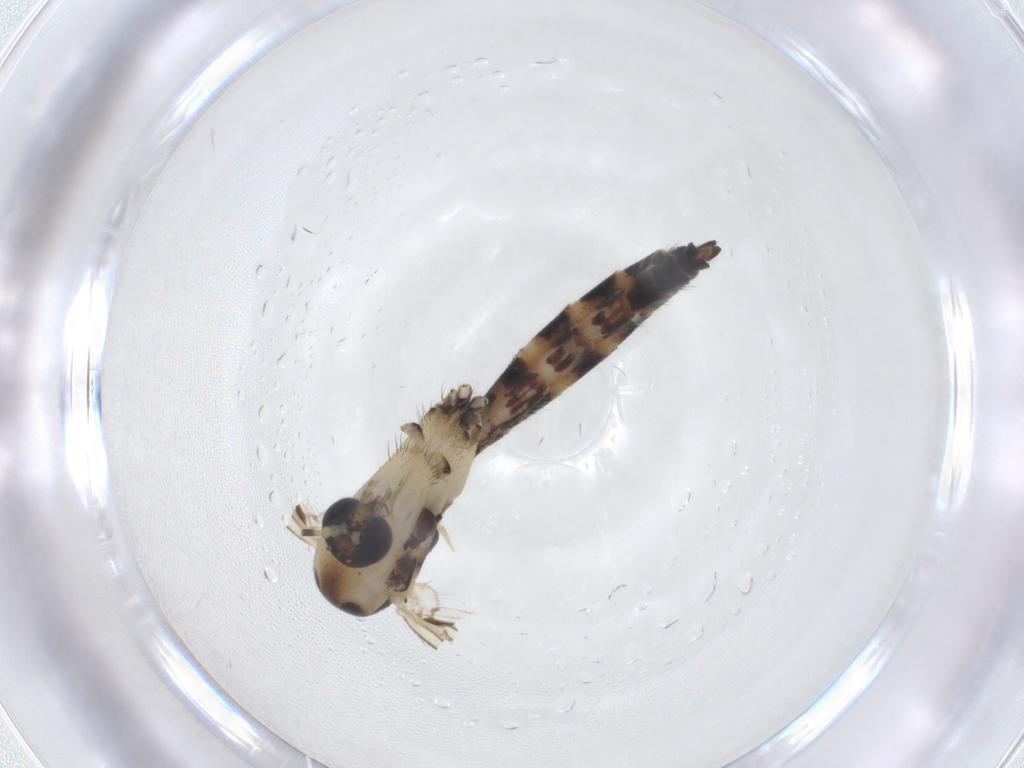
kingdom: Animalia
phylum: Arthropoda
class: Insecta
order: Diptera
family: Mycetophilidae
